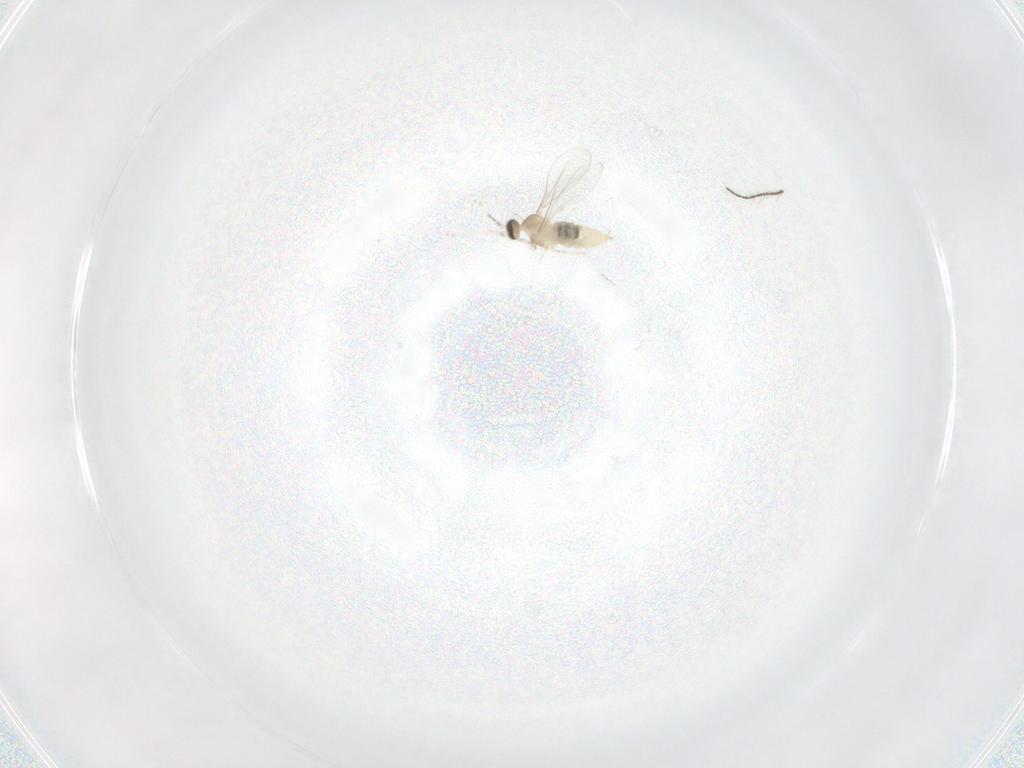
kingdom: Animalia
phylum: Arthropoda
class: Insecta
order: Diptera
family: Cecidomyiidae
